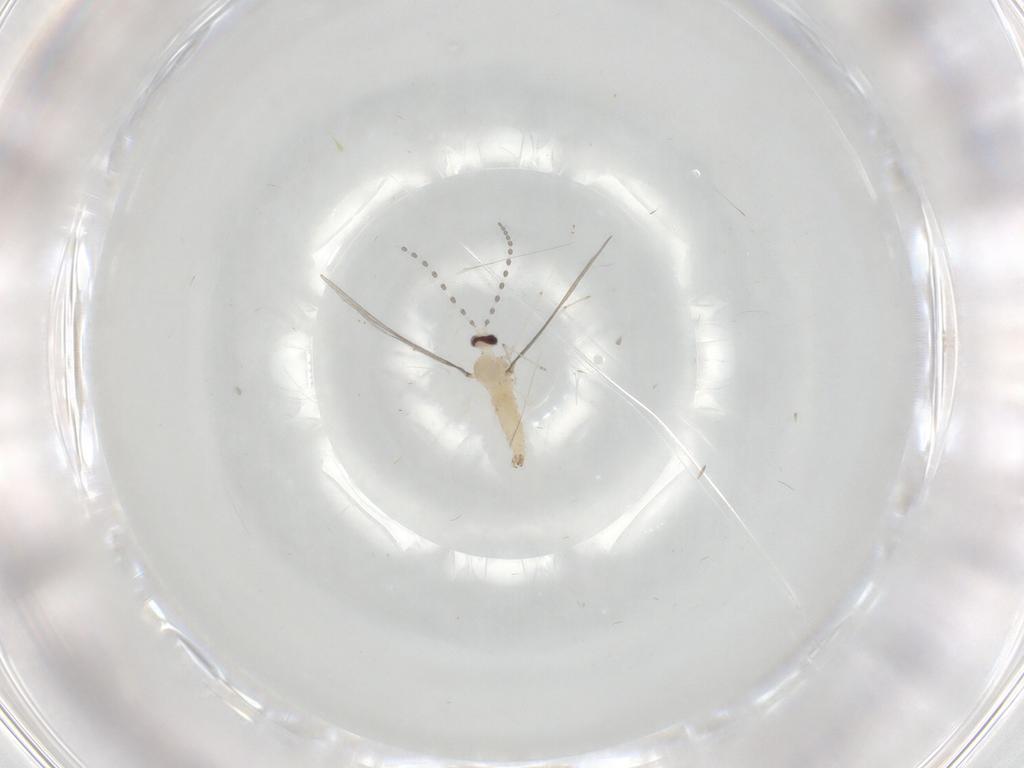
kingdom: Animalia
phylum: Arthropoda
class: Insecta
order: Diptera
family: Cecidomyiidae
